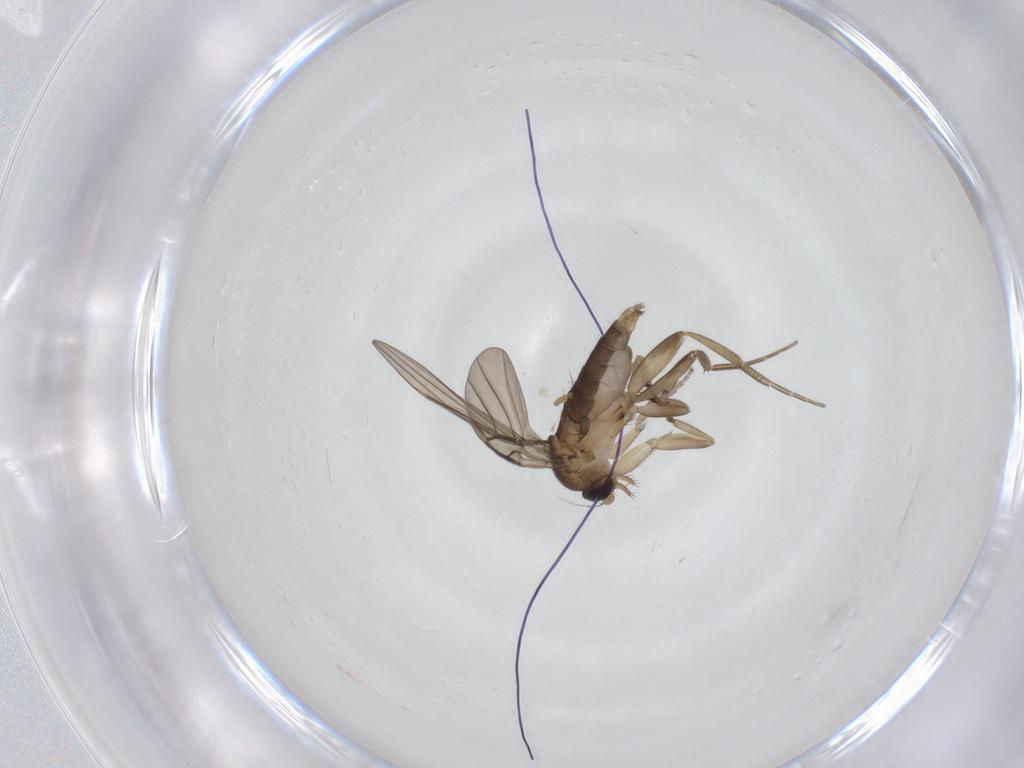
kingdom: Animalia
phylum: Arthropoda
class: Insecta
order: Diptera
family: Phoridae
